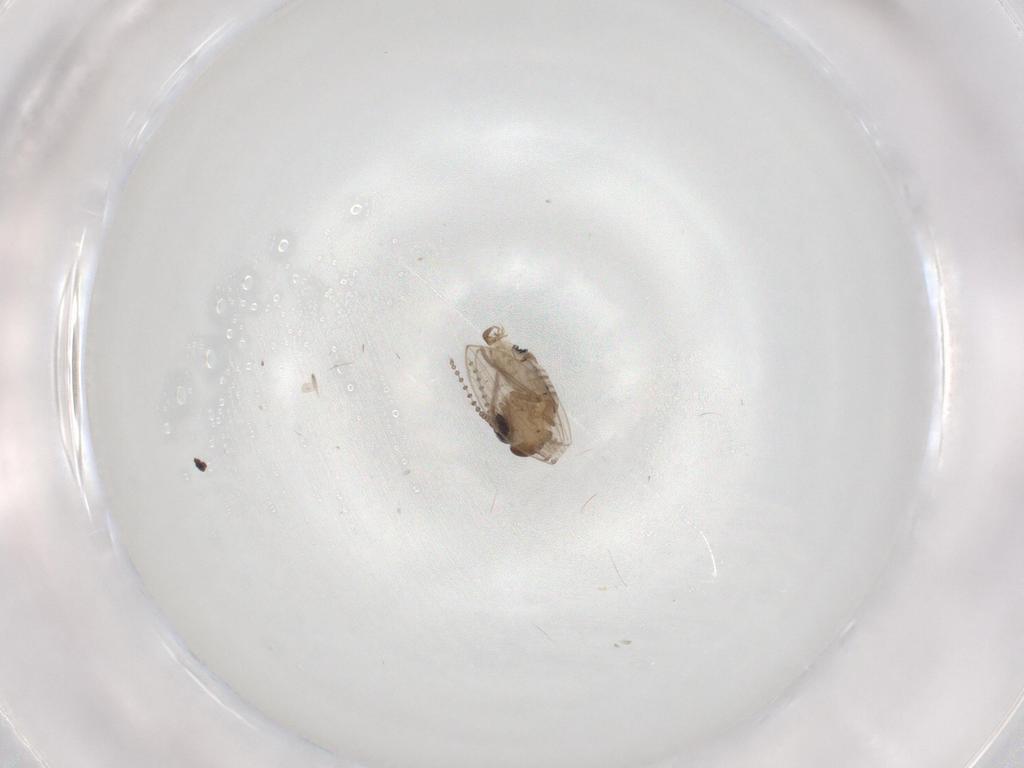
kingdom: Animalia
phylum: Arthropoda
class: Insecta
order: Diptera
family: Psychodidae
